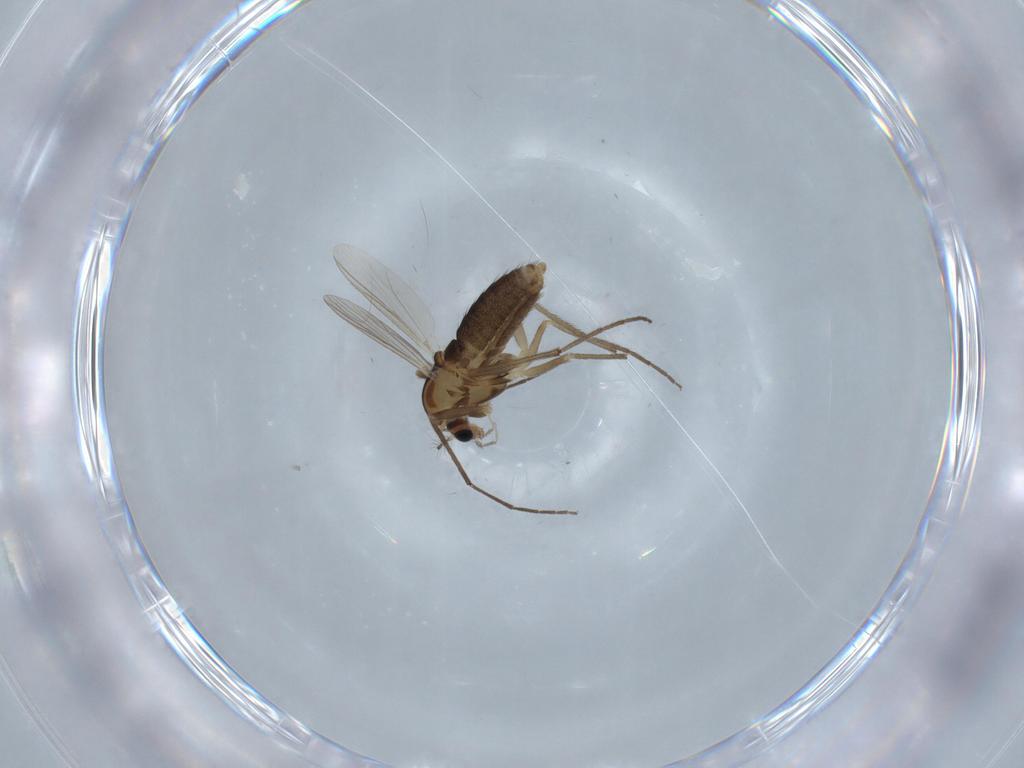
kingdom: Animalia
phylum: Arthropoda
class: Insecta
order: Diptera
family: Chironomidae
